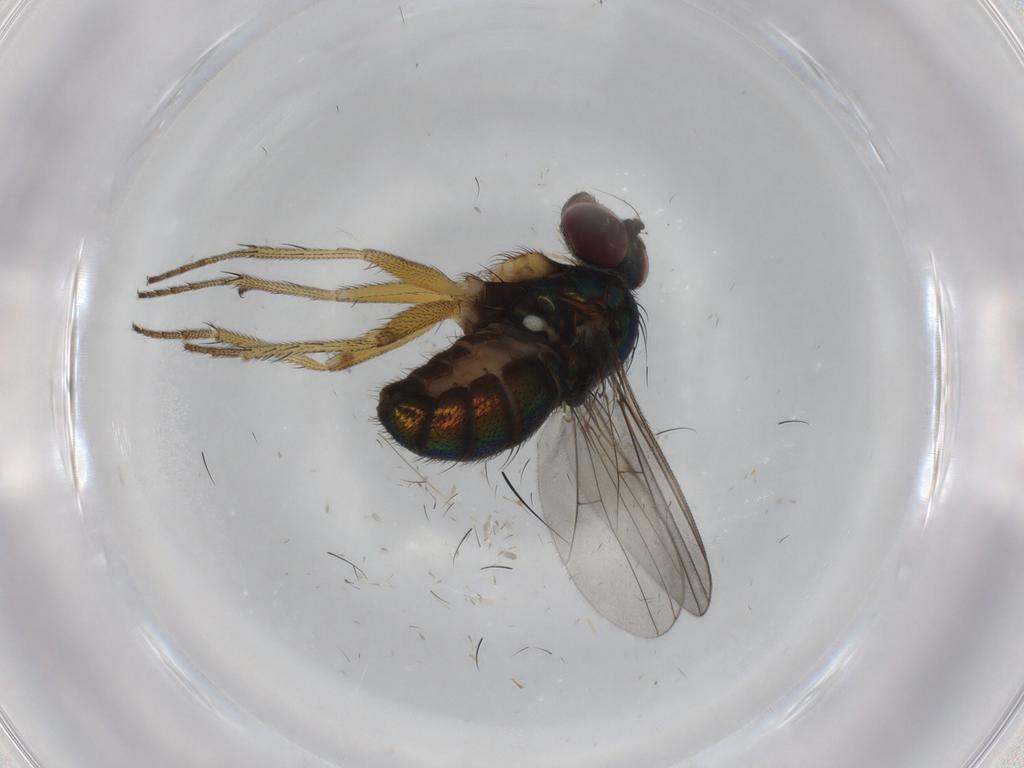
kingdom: Animalia
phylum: Arthropoda
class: Insecta
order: Diptera
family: Dolichopodidae
